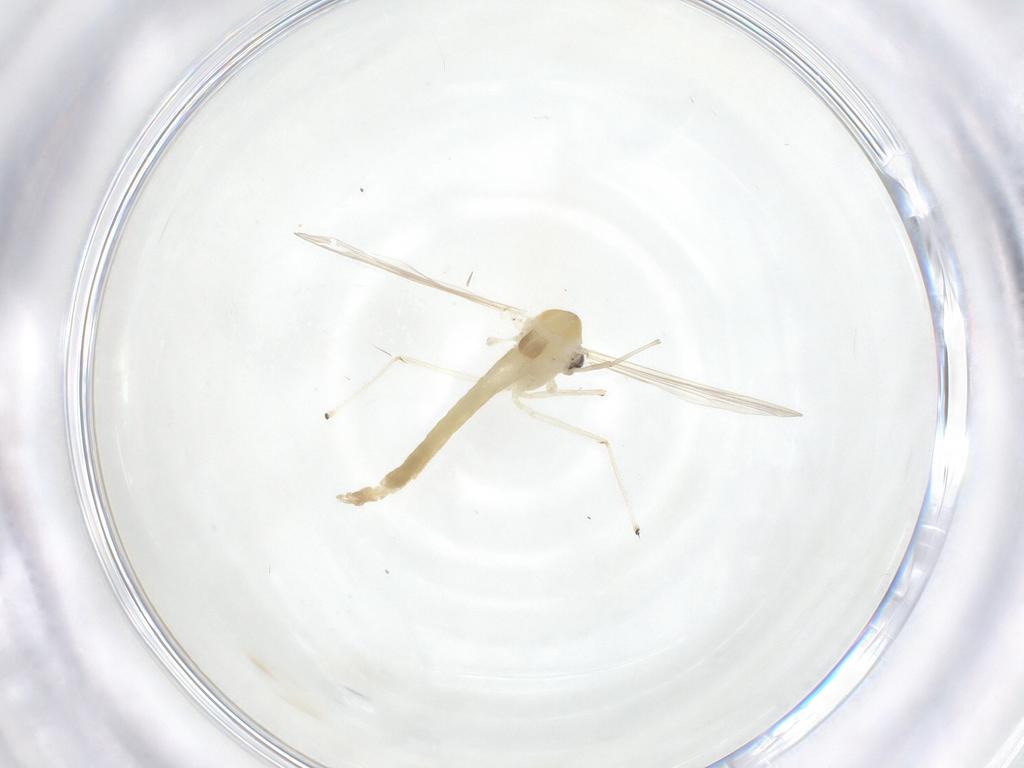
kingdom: Animalia
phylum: Arthropoda
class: Insecta
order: Diptera
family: Chironomidae
